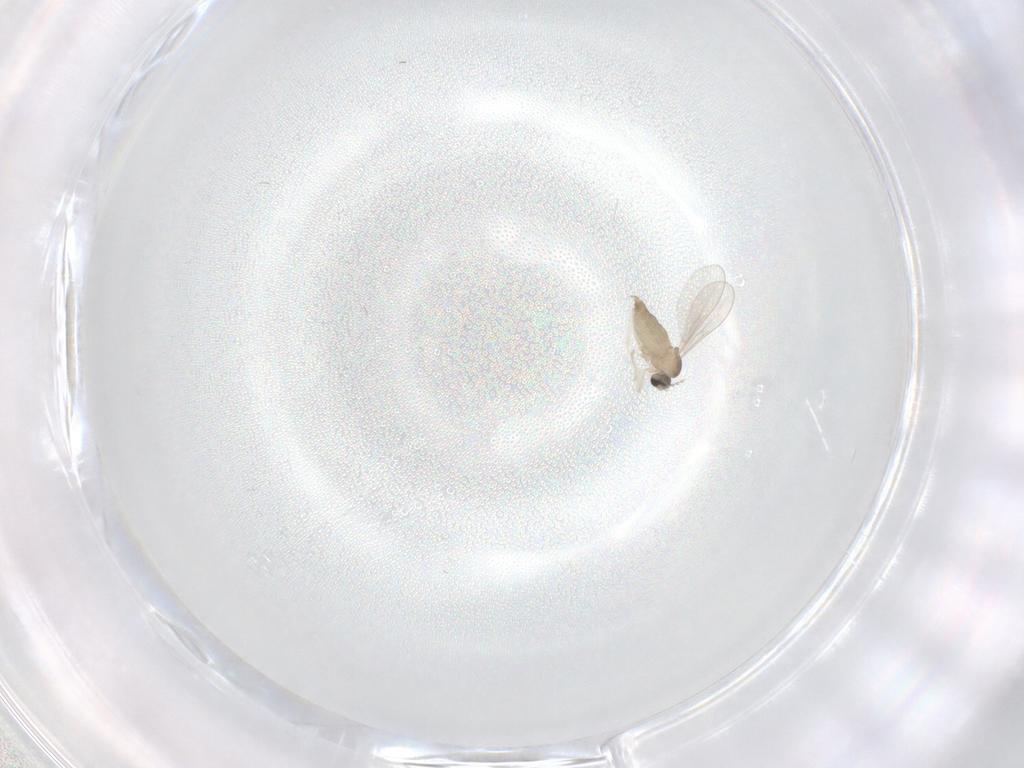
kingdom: Animalia
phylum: Arthropoda
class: Insecta
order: Diptera
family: Cecidomyiidae
